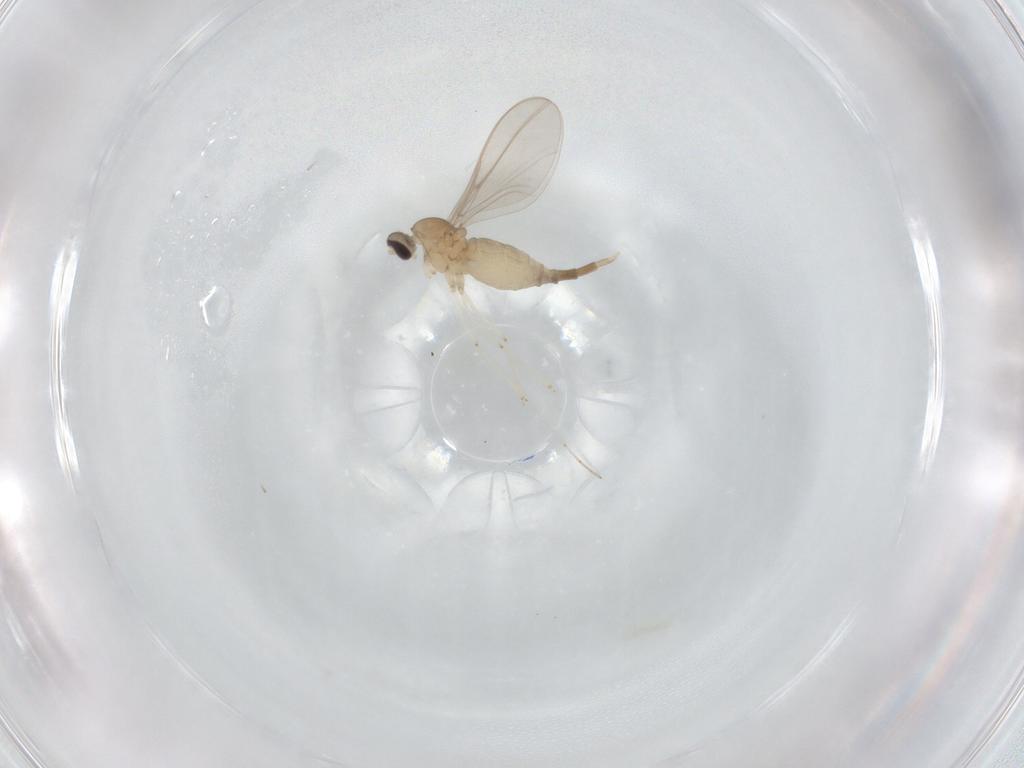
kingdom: Animalia
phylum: Arthropoda
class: Insecta
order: Diptera
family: Cecidomyiidae
